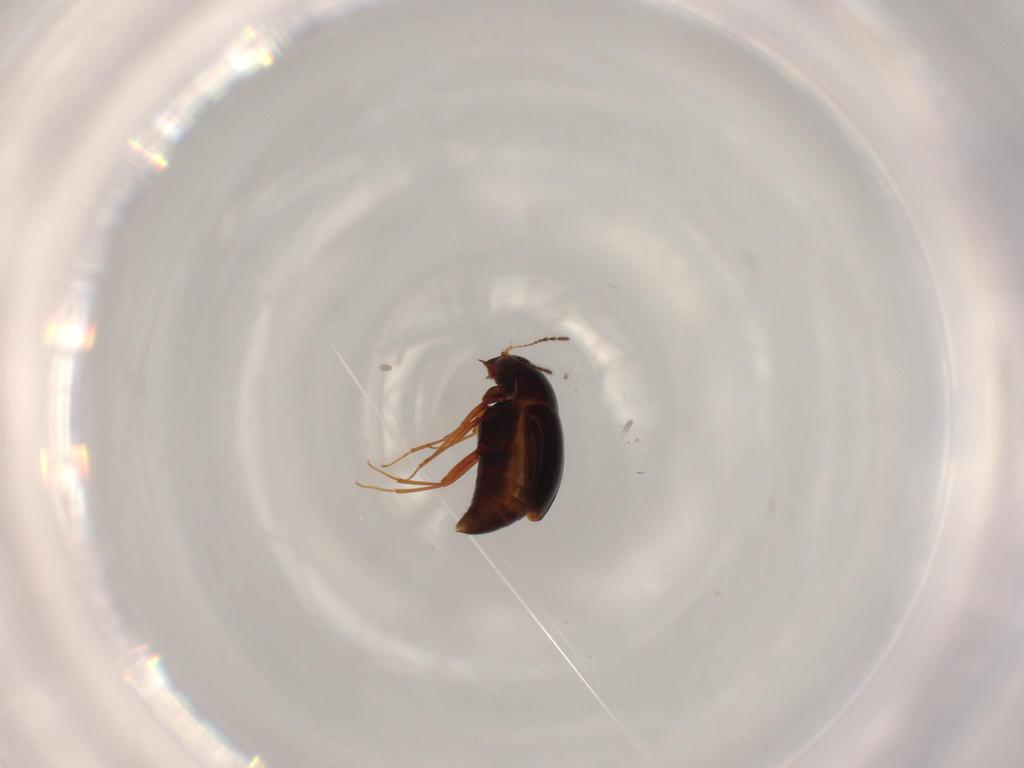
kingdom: Animalia
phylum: Arthropoda
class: Insecta
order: Coleoptera
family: Staphylinidae
